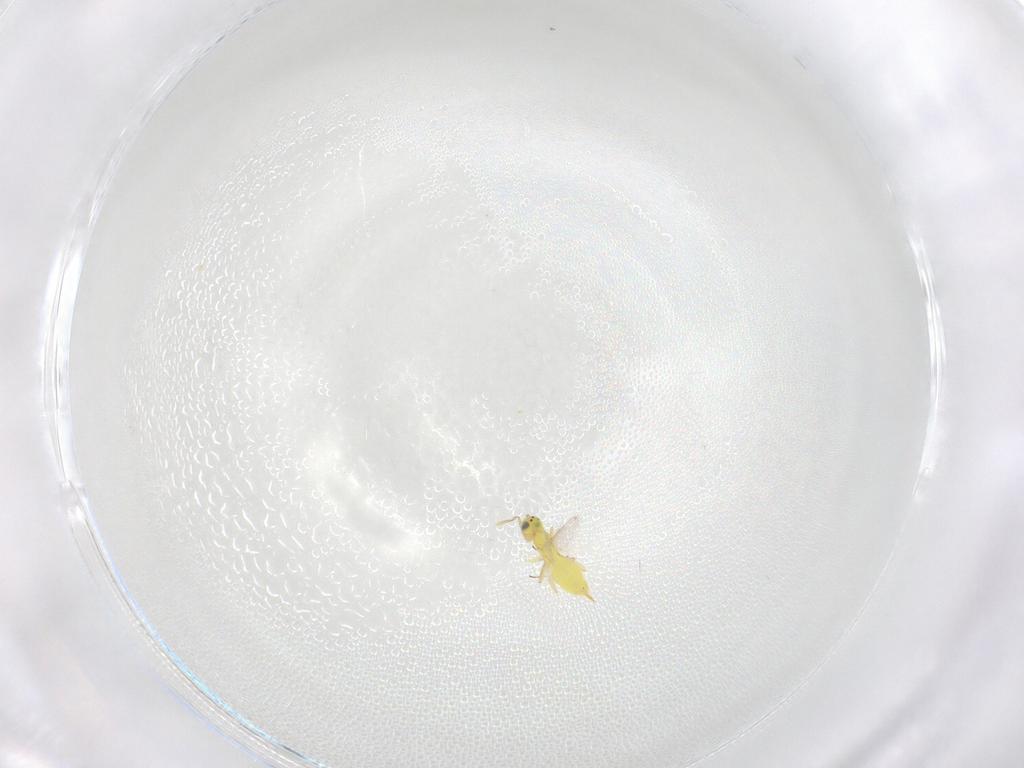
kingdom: Animalia
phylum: Arthropoda
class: Insecta
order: Hymenoptera
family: Aphelinidae
